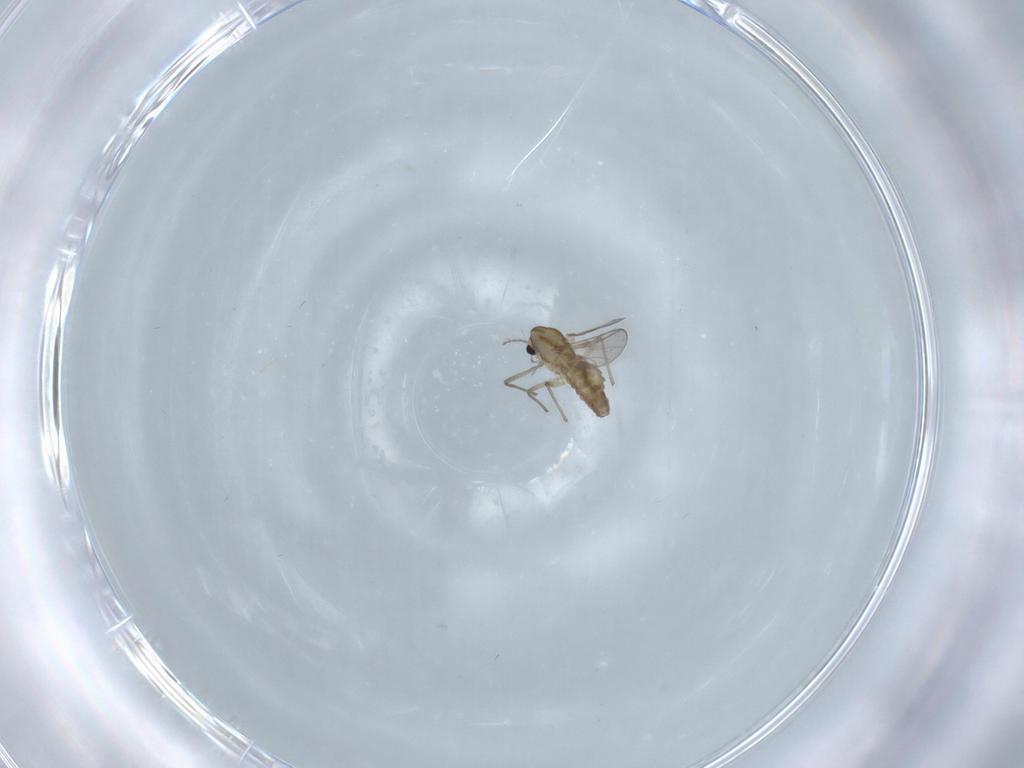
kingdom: Animalia
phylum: Arthropoda
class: Insecta
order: Diptera
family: Chironomidae
